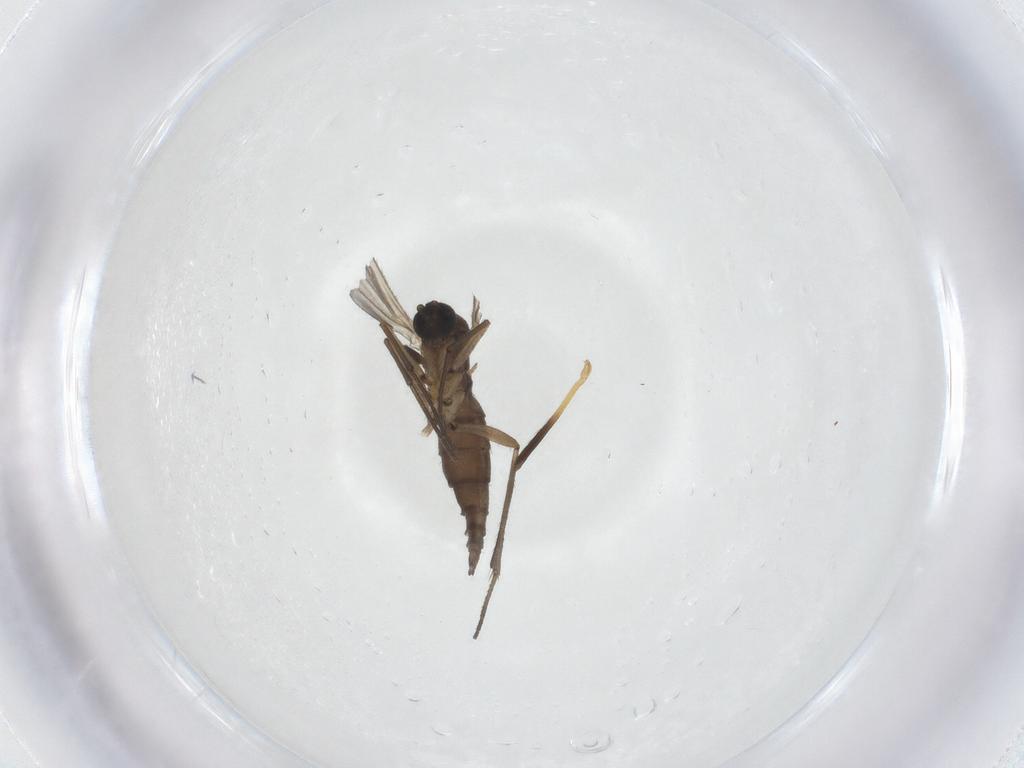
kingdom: Animalia
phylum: Arthropoda
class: Insecta
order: Diptera
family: Sciaridae
